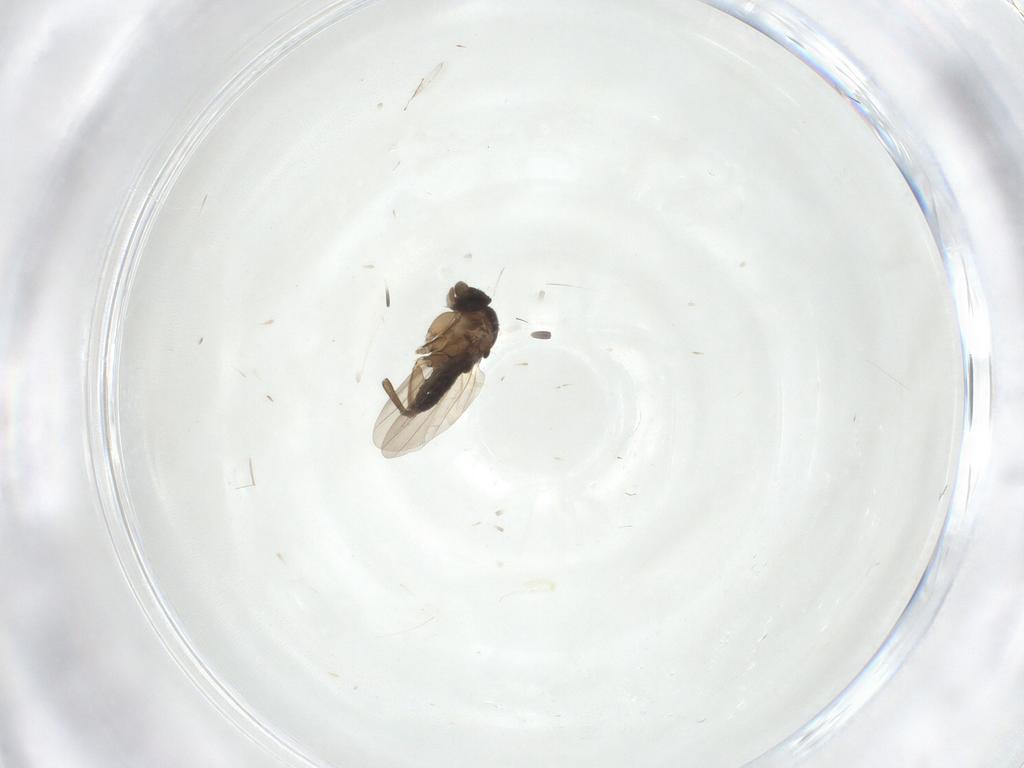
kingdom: Animalia
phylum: Arthropoda
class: Insecta
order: Diptera
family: Phoridae
